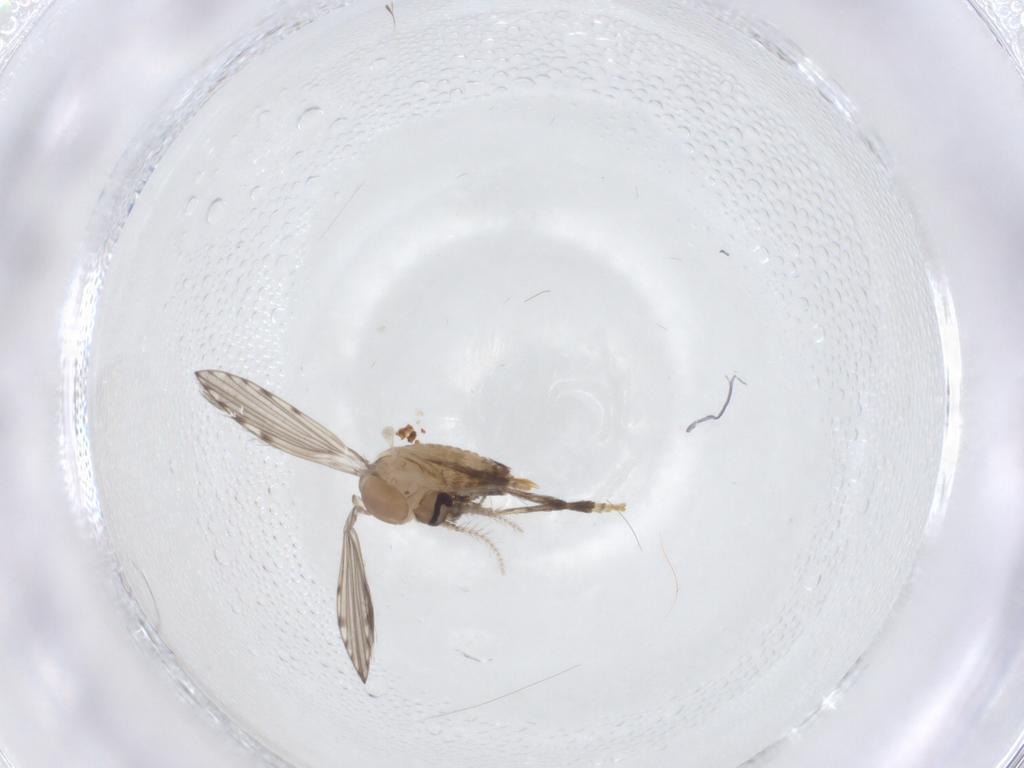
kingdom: Animalia
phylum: Arthropoda
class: Insecta
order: Diptera
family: Psychodidae
